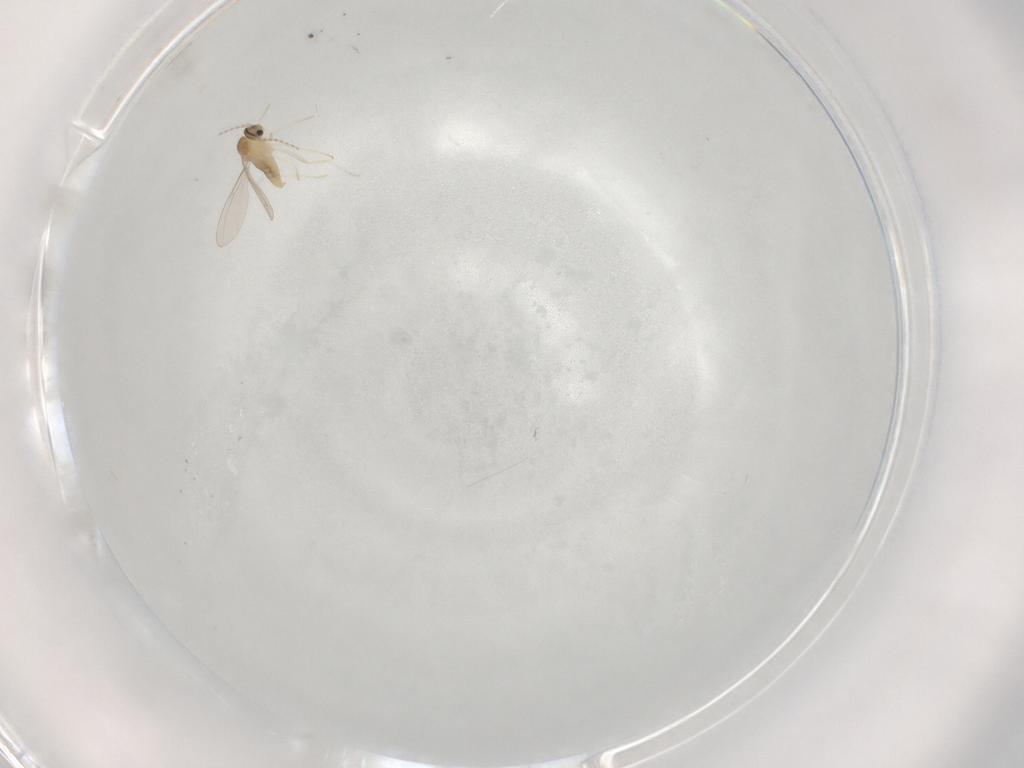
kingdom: Animalia
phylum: Arthropoda
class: Insecta
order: Diptera
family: Cecidomyiidae
